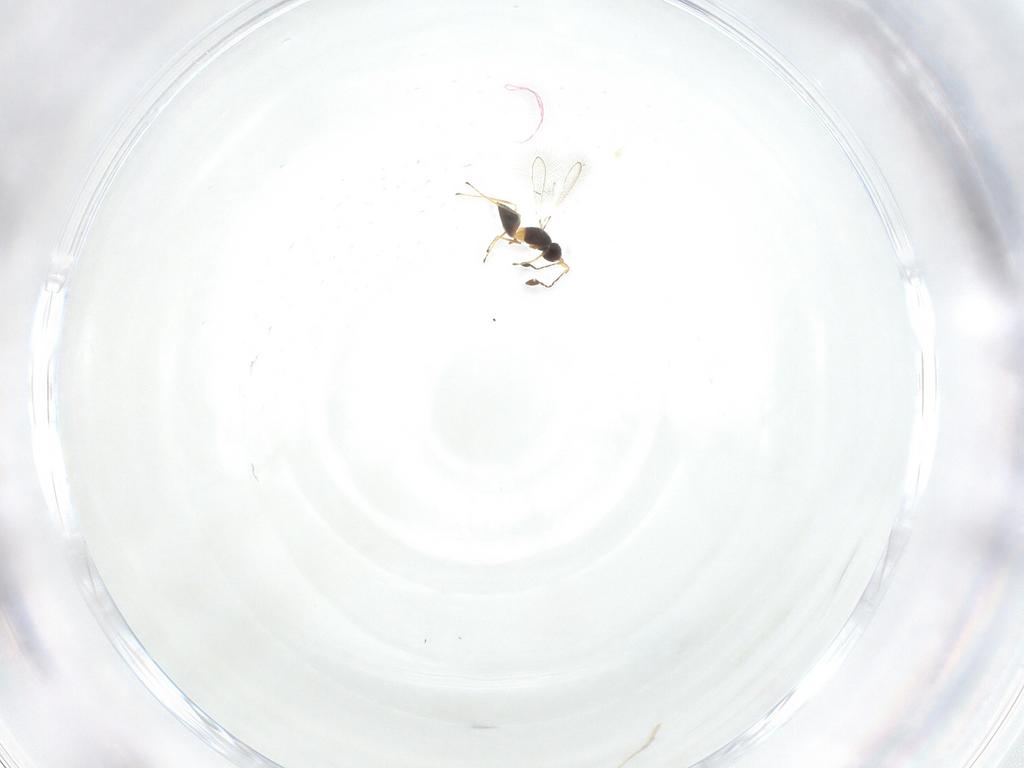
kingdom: Animalia
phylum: Arthropoda
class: Insecta
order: Hymenoptera
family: Mymaridae
